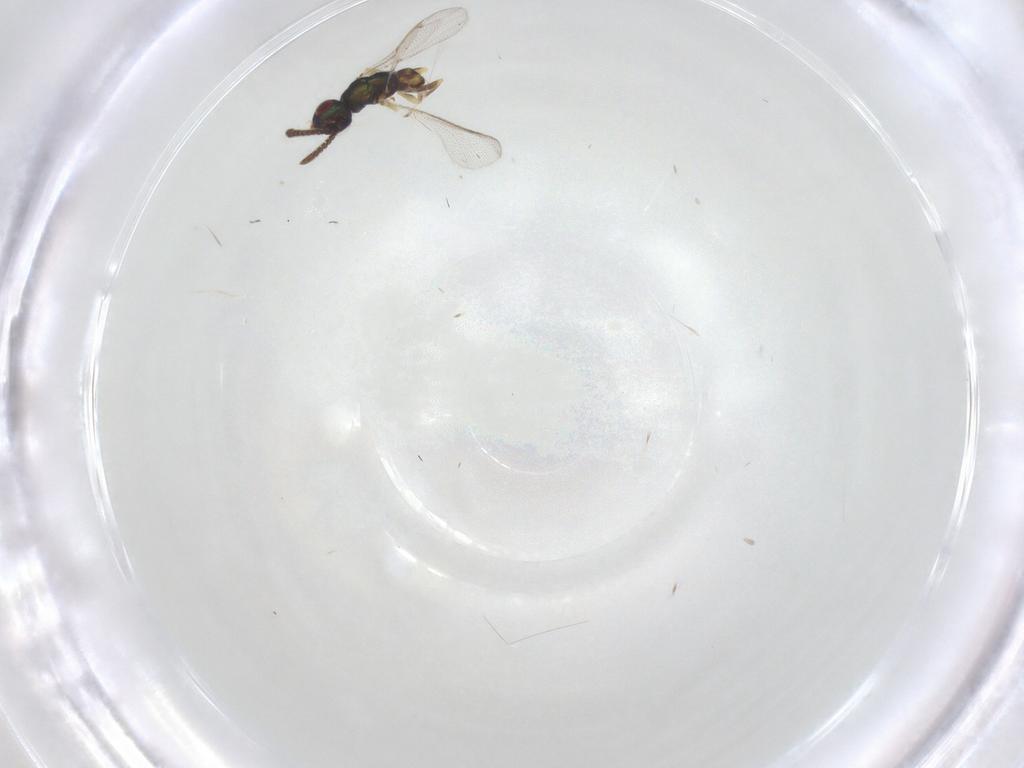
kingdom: Animalia
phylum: Arthropoda
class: Insecta
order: Hymenoptera
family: Torymidae
